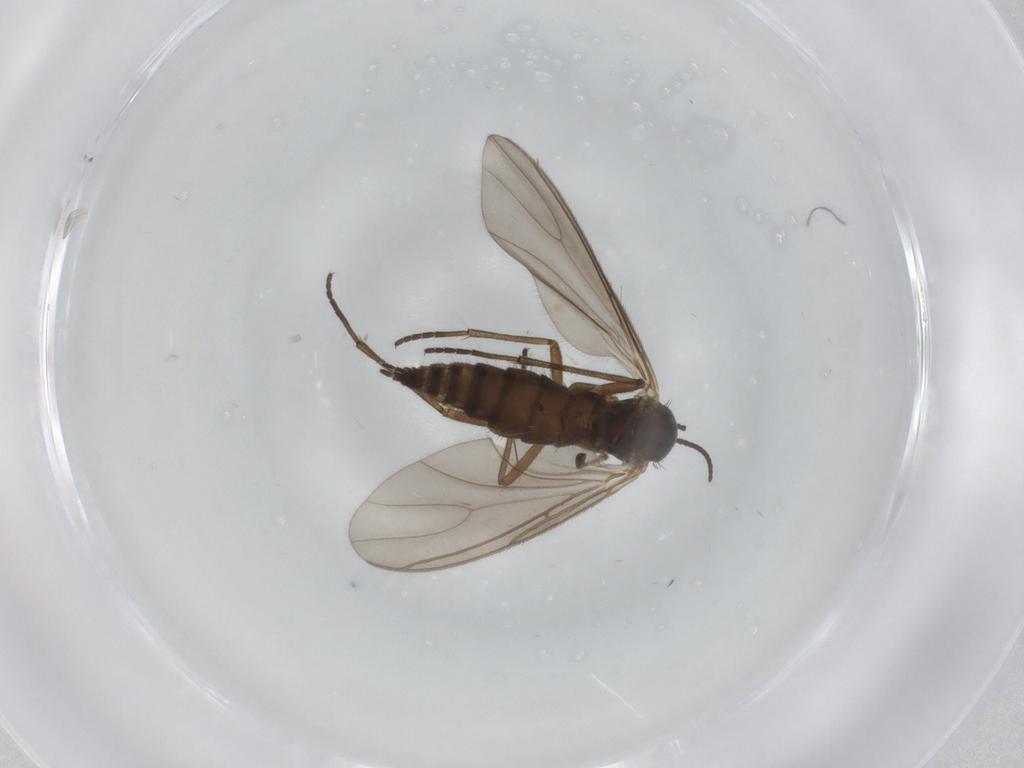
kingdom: Animalia
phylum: Arthropoda
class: Insecta
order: Diptera
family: Sciaridae
